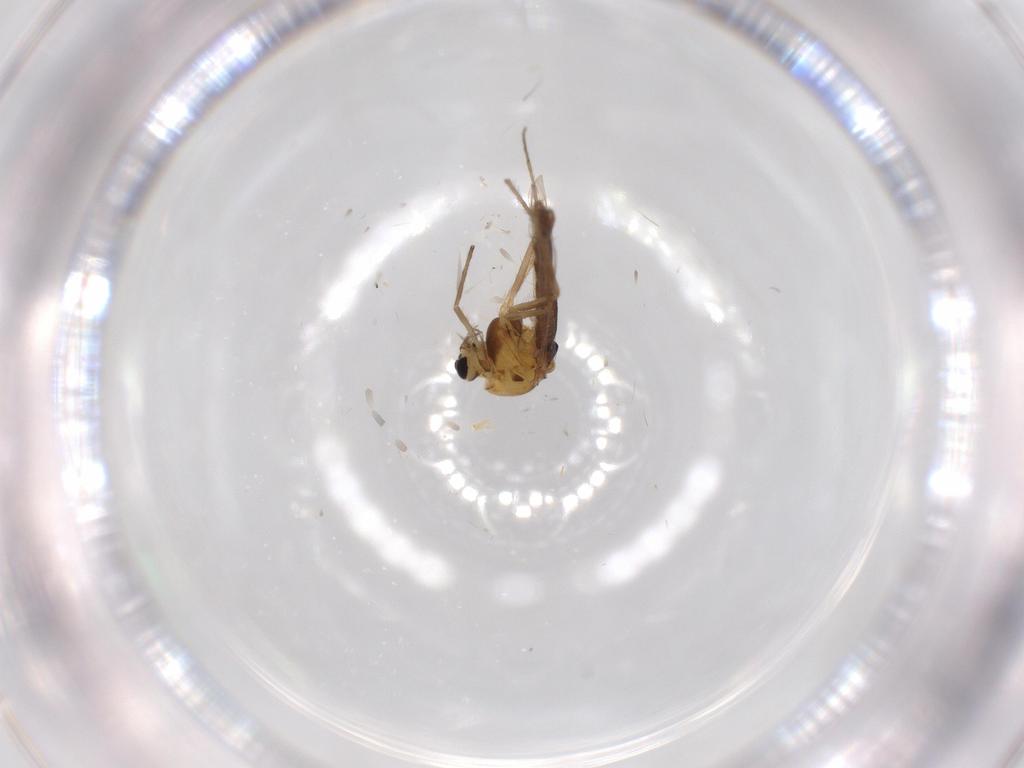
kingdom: Animalia
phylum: Arthropoda
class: Insecta
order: Diptera
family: Chironomidae
